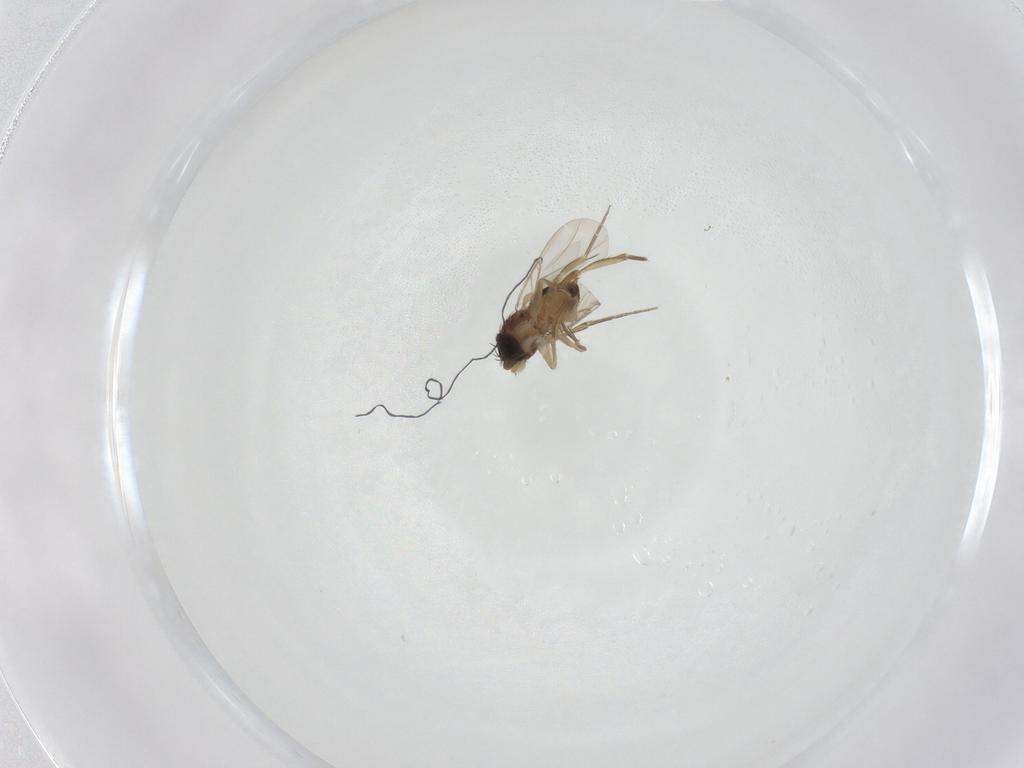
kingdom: Animalia
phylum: Arthropoda
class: Insecta
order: Diptera
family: Phoridae
